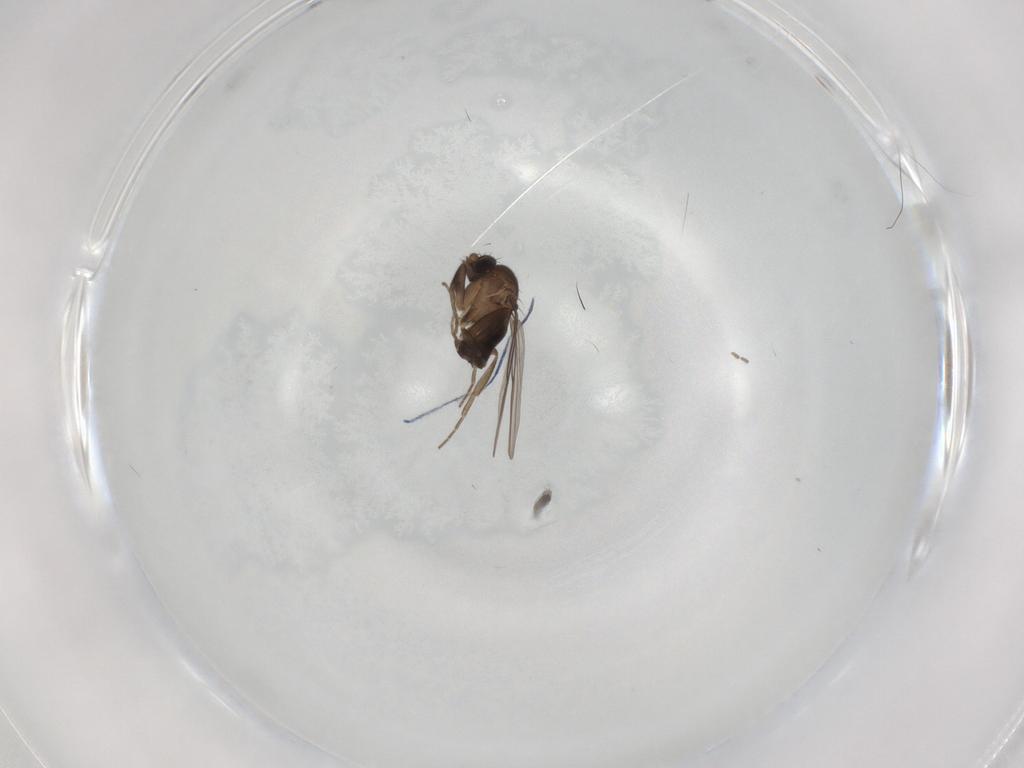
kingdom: Animalia
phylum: Arthropoda
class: Insecta
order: Diptera
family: Phoridae
